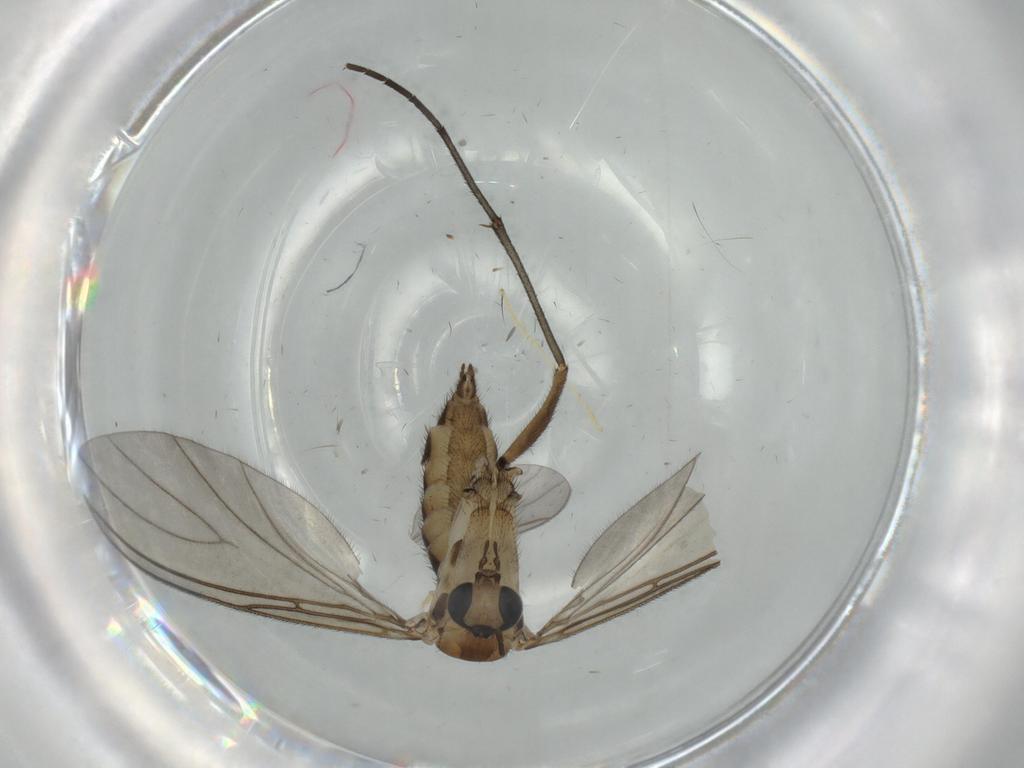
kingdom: Animalia
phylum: Arthropoda
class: Insecta
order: Diptera
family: Sciaridae
